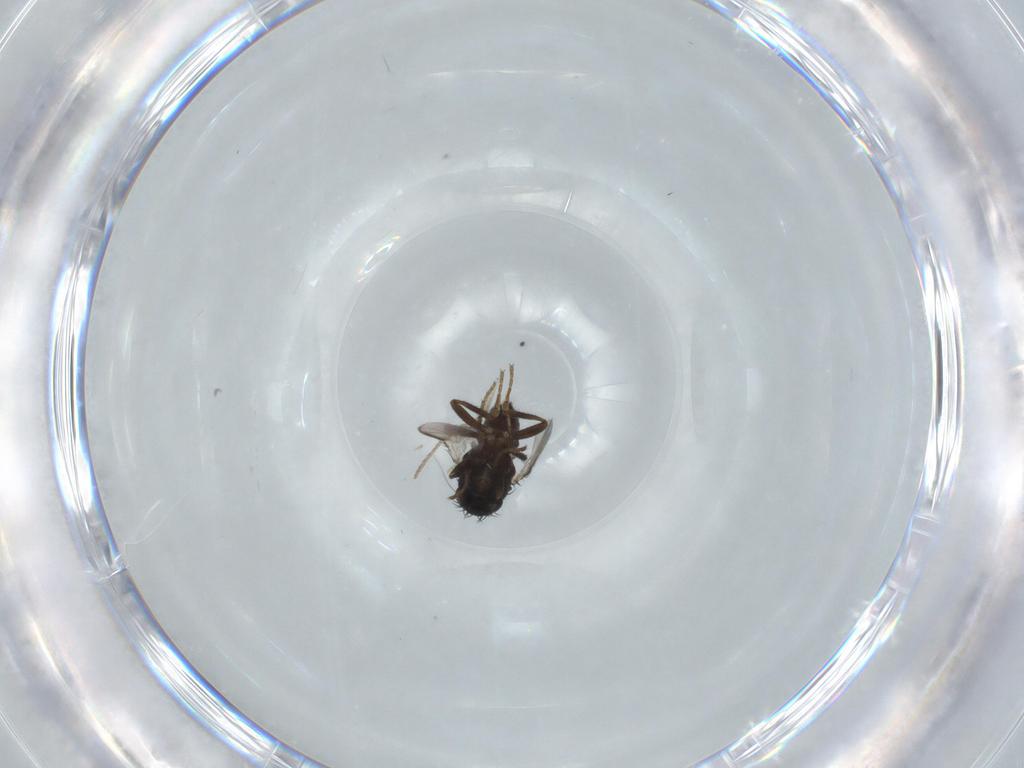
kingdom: Animalia
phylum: Arthropoda
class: Insecta
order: Diptera
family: Sphaeroceridae
